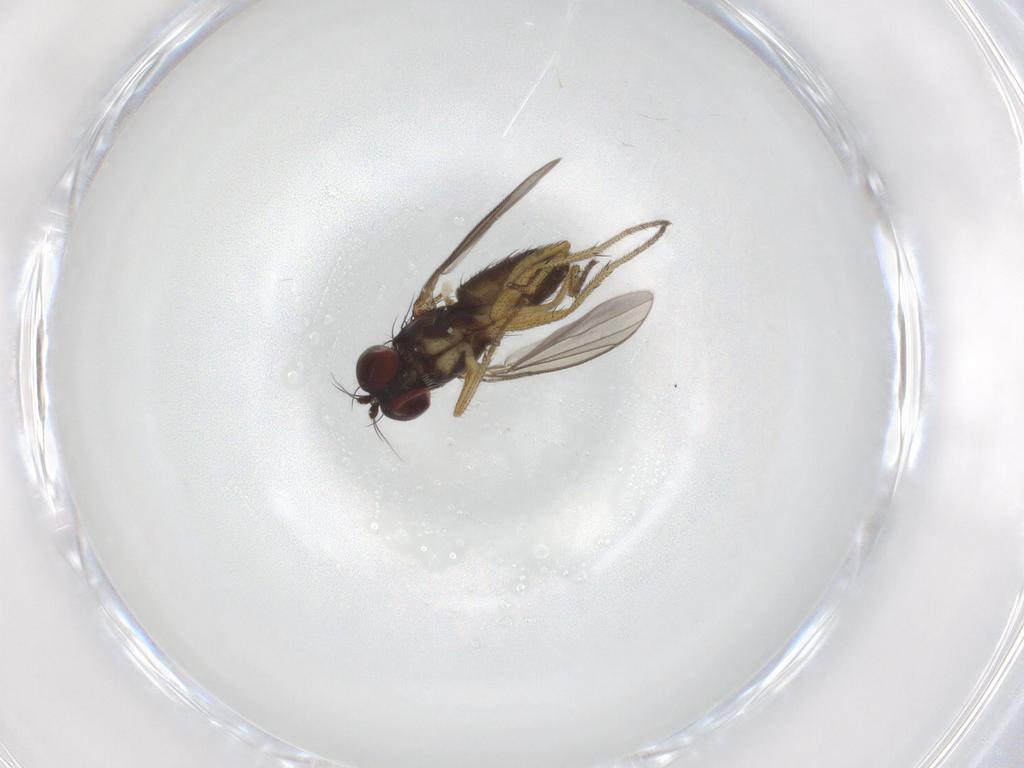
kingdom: Animalia
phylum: Arthropoda
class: Insecta
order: Diptera
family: Dolichopodidae
